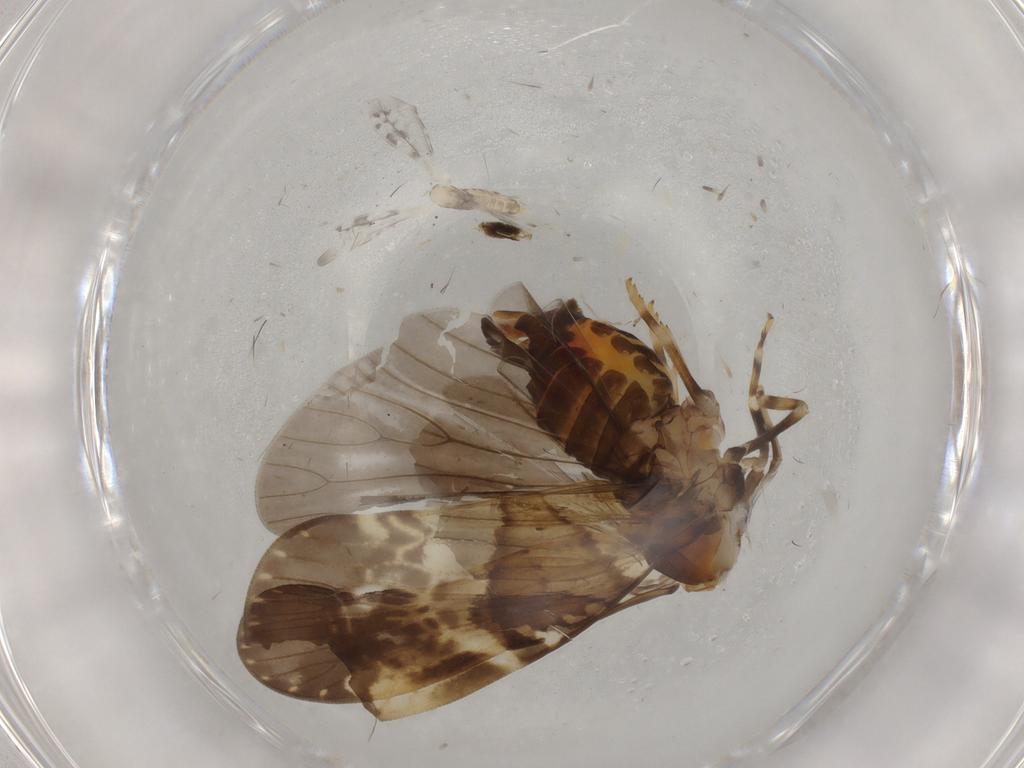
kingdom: Animalia
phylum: Arthropoda
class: Insecta
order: Hemiptera
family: Cixiidae
